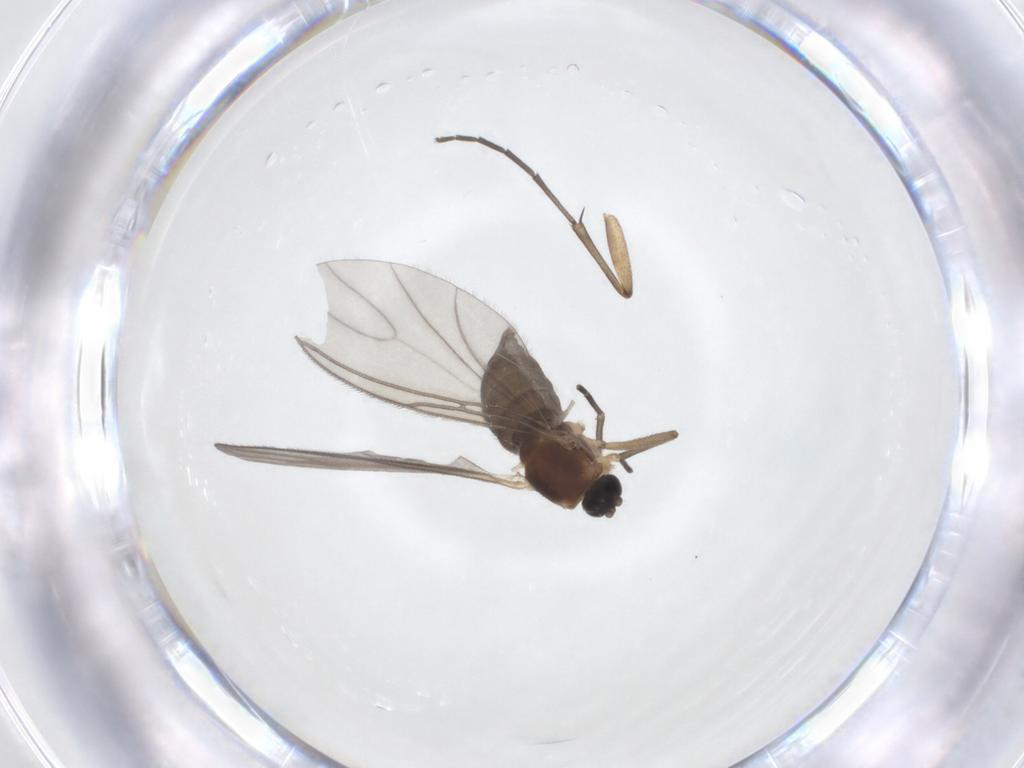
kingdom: Animalia
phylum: Arthropoda
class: Insecta
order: Diptera
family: Sciaridae
